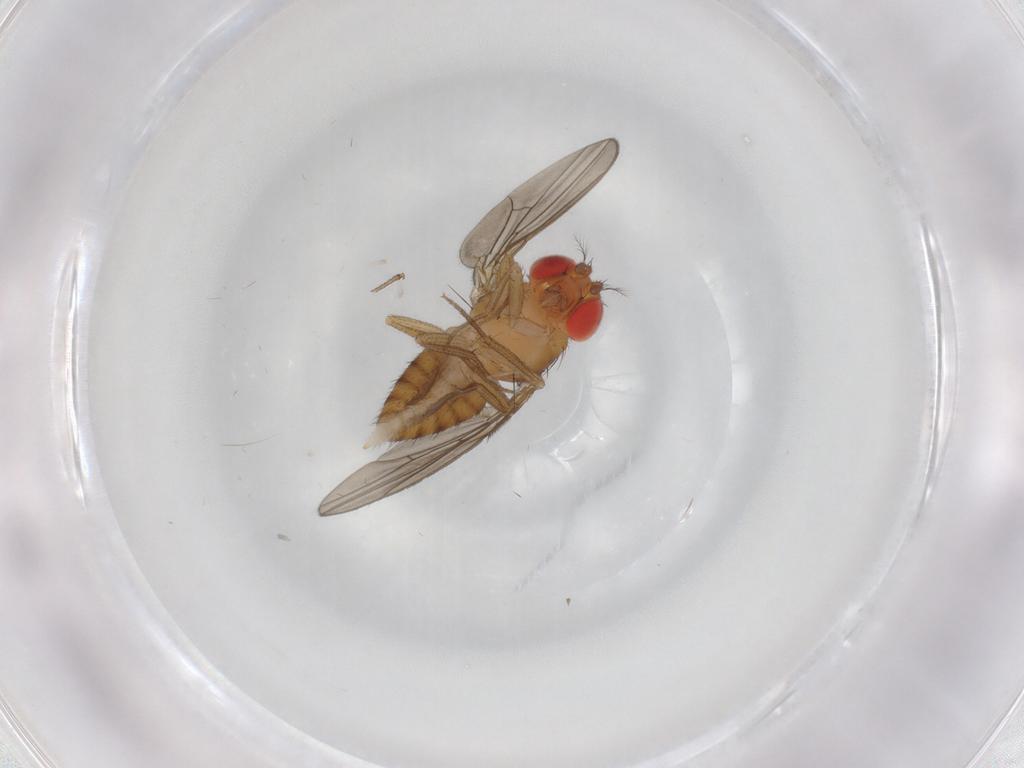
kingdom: Animalia
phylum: Arthropoda
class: Insecta
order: Diptera
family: Drosophilidae
